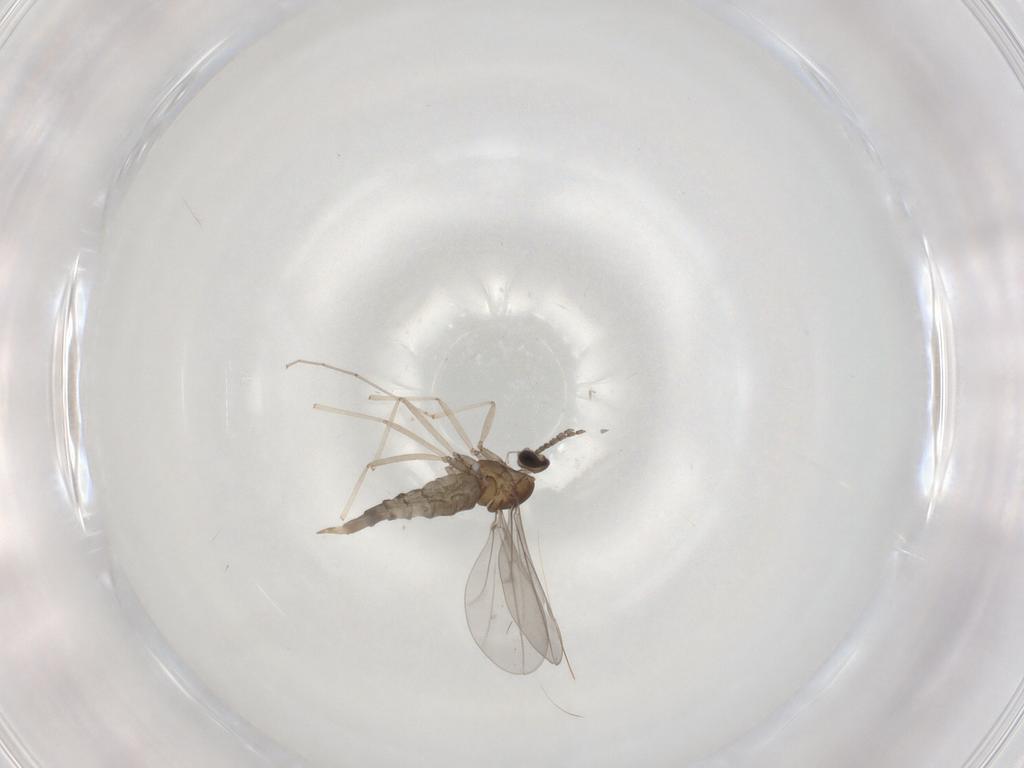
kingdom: Animalia
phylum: Arthropoda
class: Insecta
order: Diptera
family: Cecidomyiidae
